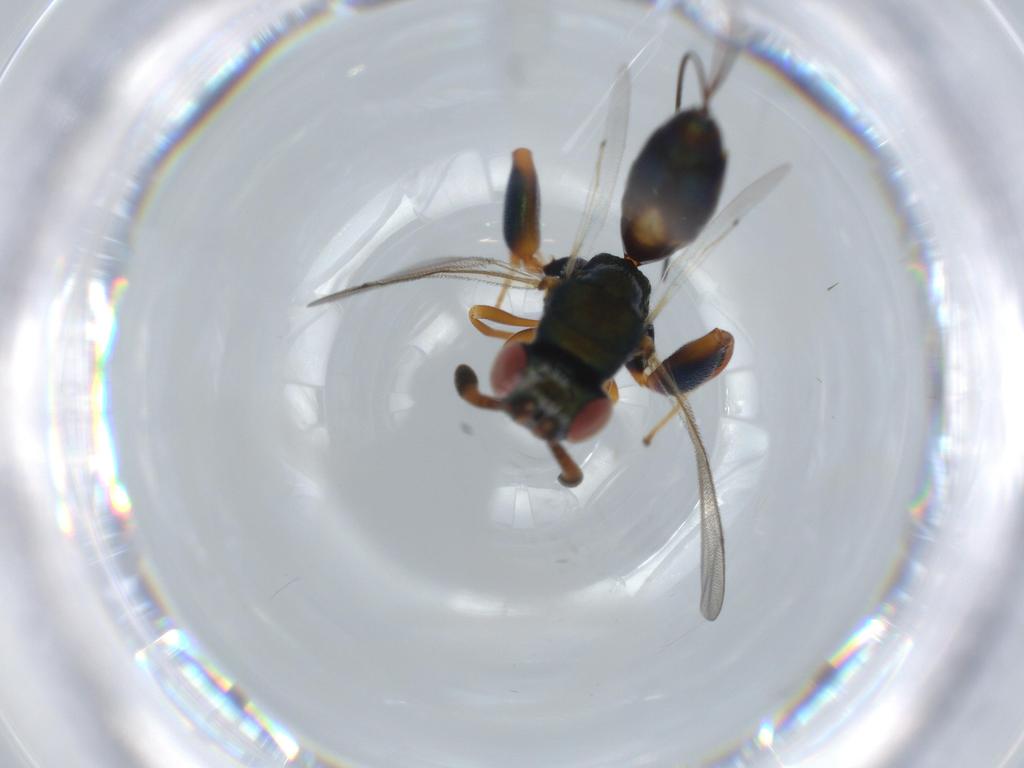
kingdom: Animalia
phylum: Arthropoda
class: Insecta
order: Hymenoptera
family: Torymidae
